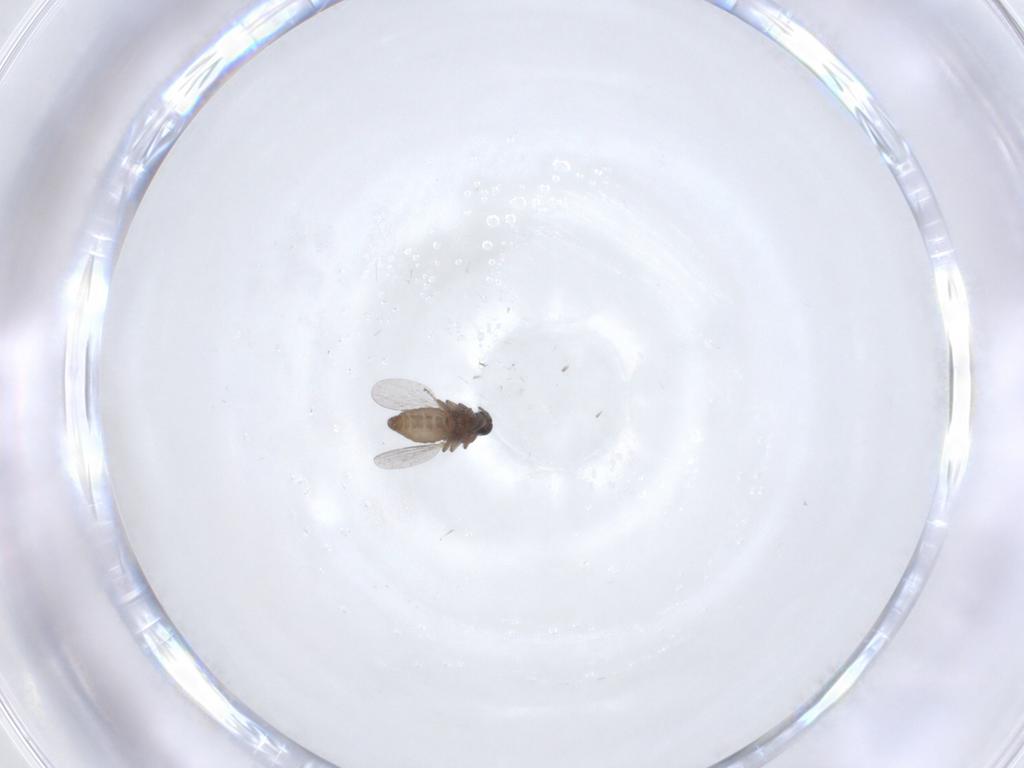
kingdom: Animalia
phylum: Arthropoda
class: Insecta
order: Diptera
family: Ceratopogonidae
